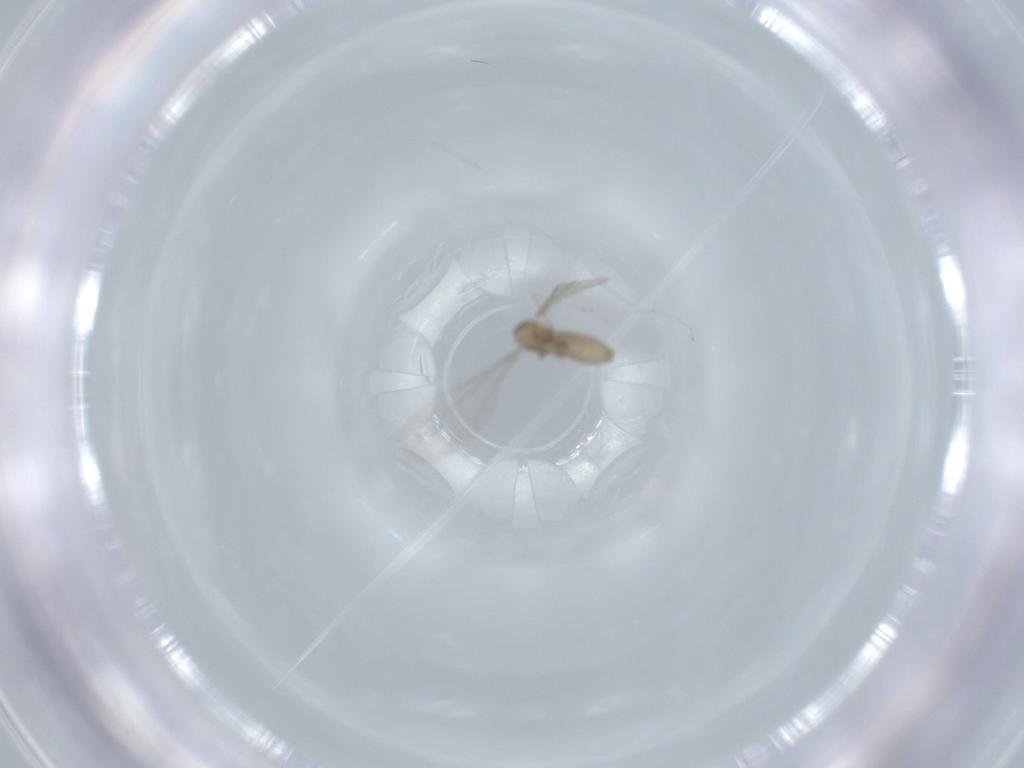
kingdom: Animalia
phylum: Arthropoda
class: Insecta
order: Diptera
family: Cecidomyiidae
